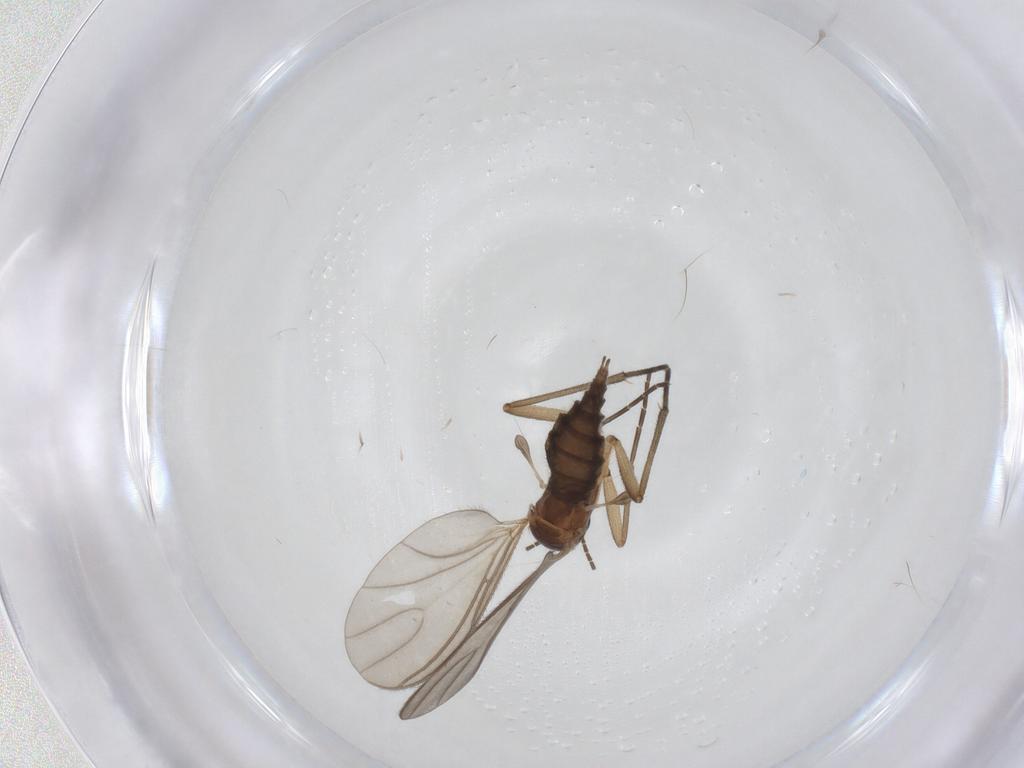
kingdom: Animalia
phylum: Arthropoda
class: Insecta
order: Diptera
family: Sciaridae
